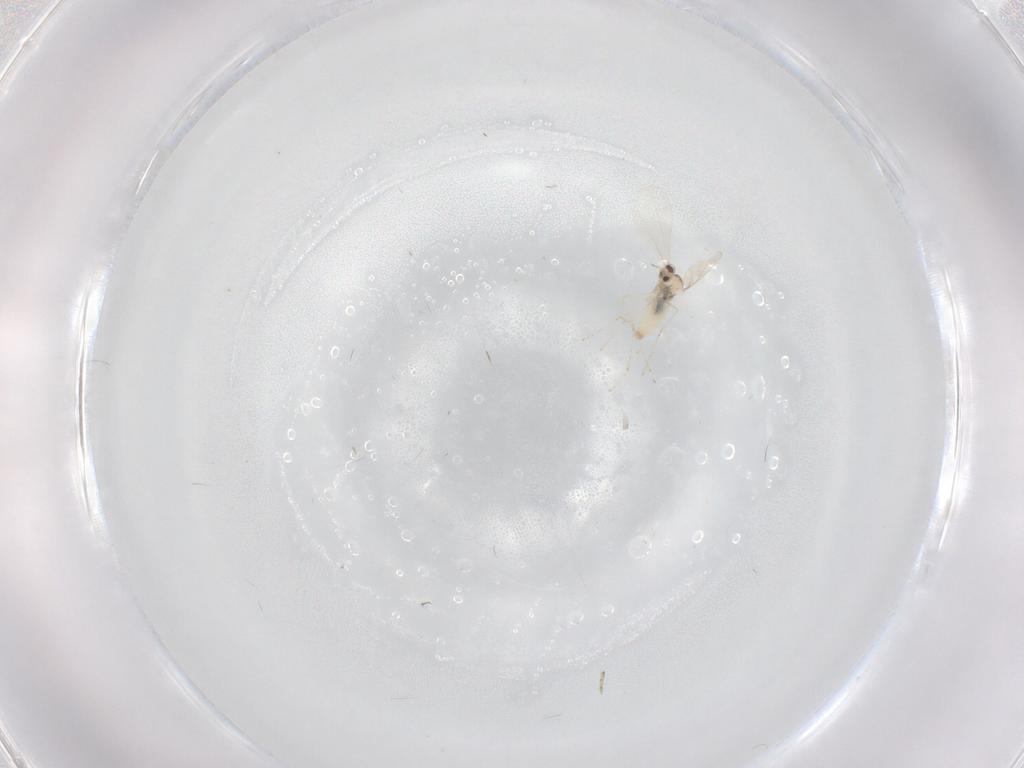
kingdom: Animalia
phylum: Arthropoda
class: Insecta
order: Diptera
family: Cecidomyiidae
